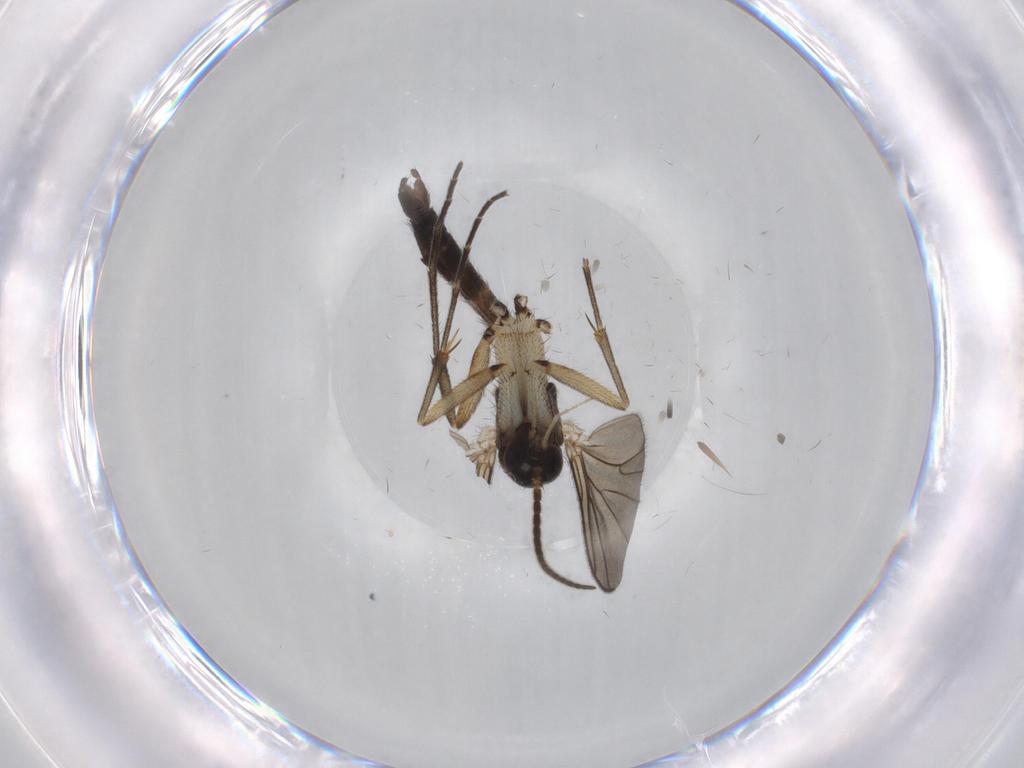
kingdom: Animalia
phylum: Arthropoda
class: Insecta
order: Diptera
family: Mycetophilidae
